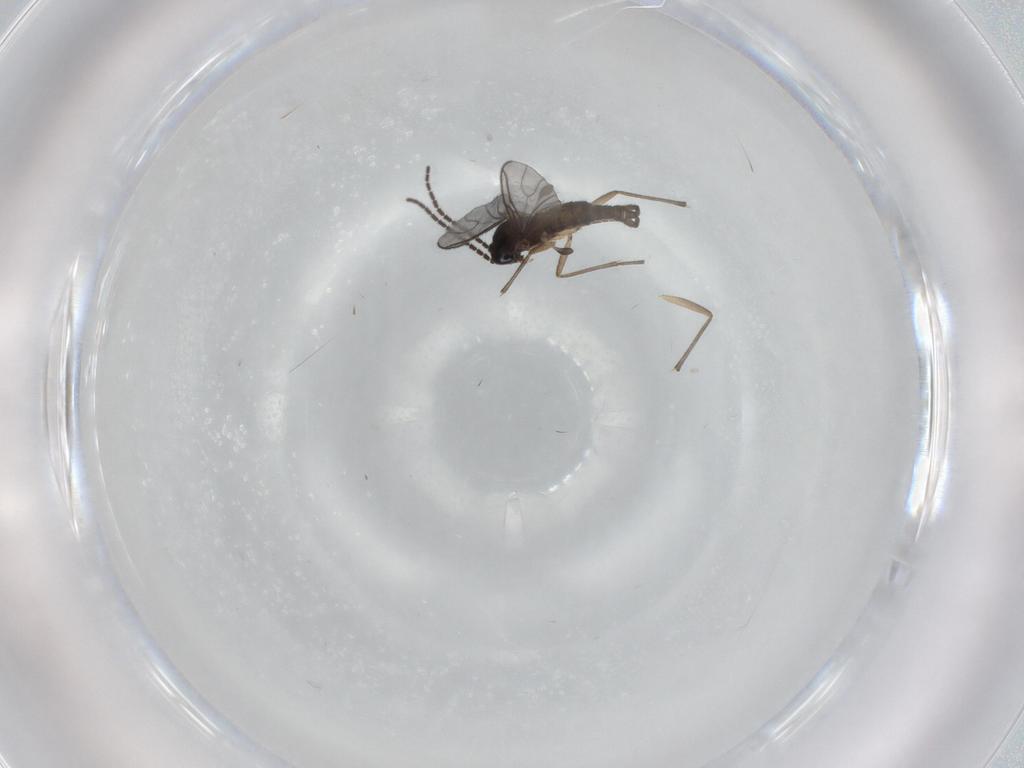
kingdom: Animalia
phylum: Arthropoda
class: Insecta
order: Diptera
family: Sciaridae
